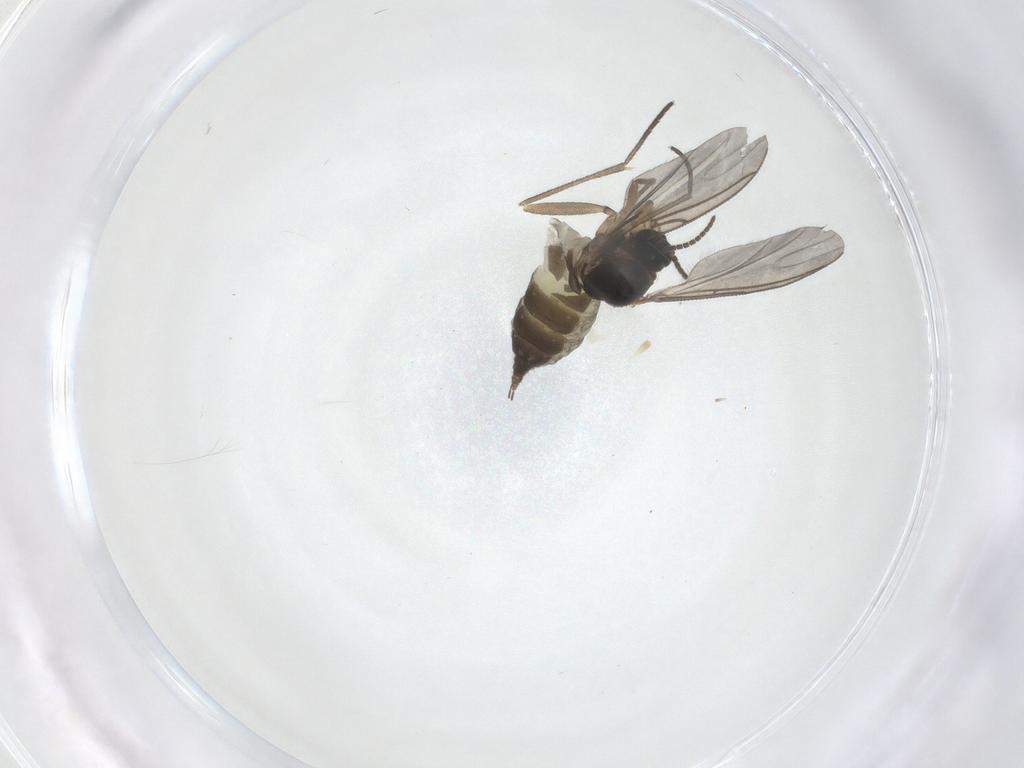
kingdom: Animalia
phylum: Arthropoda
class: Insecta
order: Diptera
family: Sciaridae
